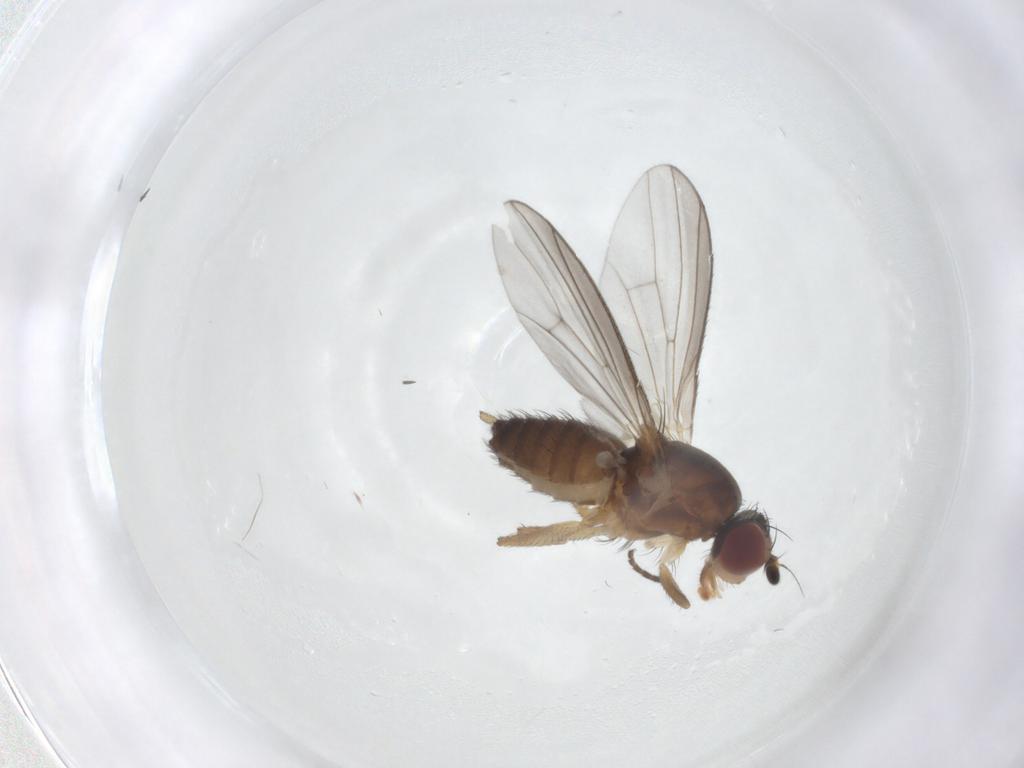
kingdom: Animalia
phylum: Arthropoda
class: Insecta
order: Diptera
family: Heleomyzidae
